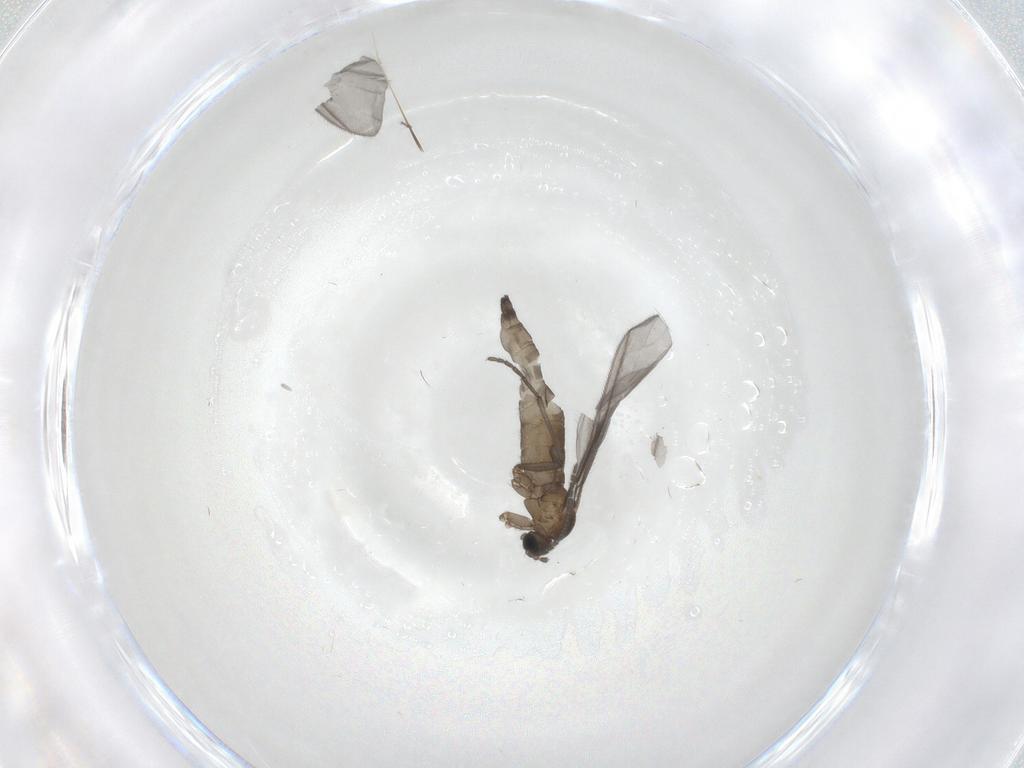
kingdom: Animalia
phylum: Arthropoda
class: Insecta
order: Diptera
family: Sciaridae
